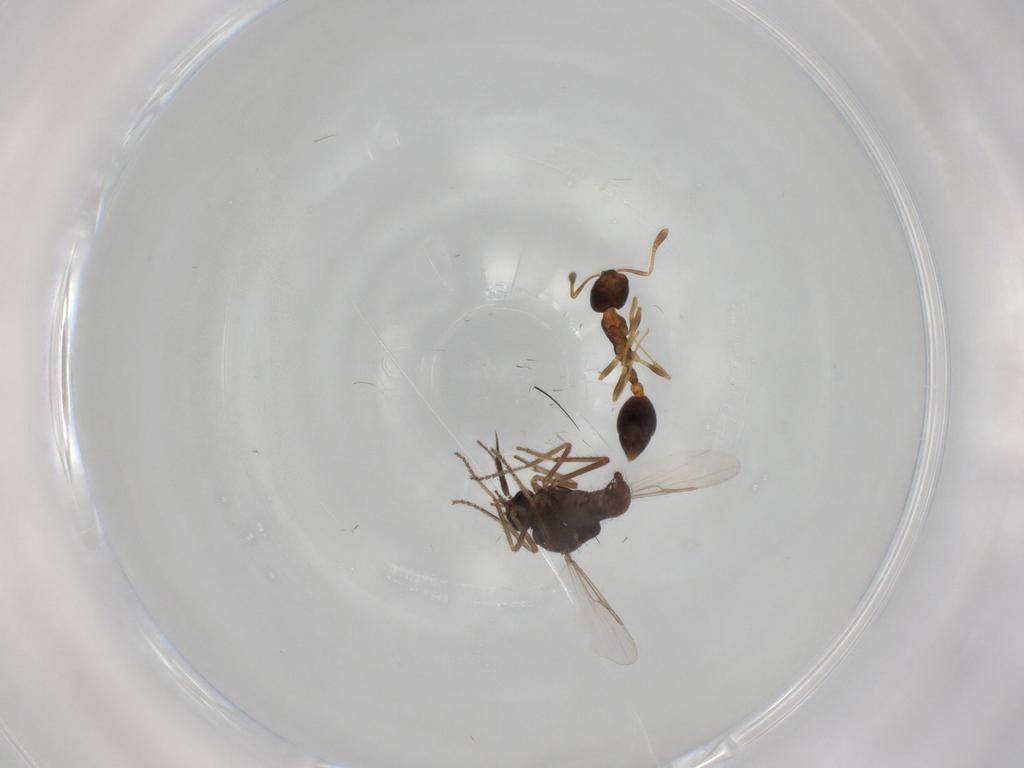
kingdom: Animalia
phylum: Arthropoda
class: Insecta
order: Diptera
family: Ceratopogonidae
